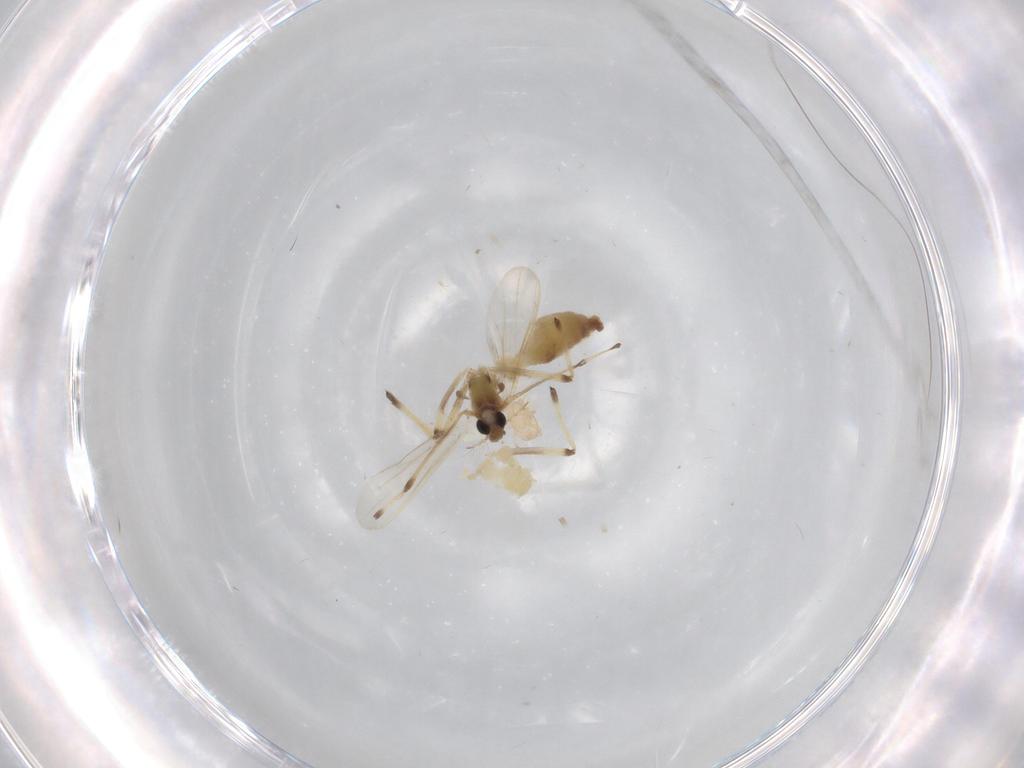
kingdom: Animalia
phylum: Arthropoda
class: Insecta
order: Diptera
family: Chironomidae
